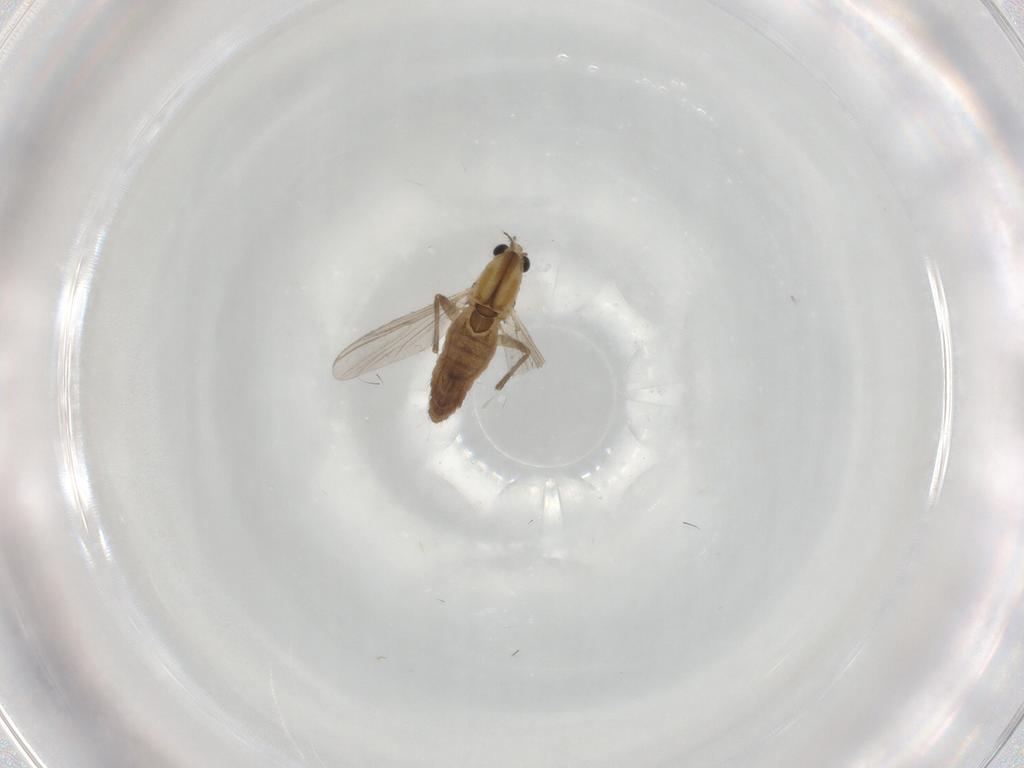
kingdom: Animalia
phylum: Arthropoda
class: Insecta
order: Diptera
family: Chironomidae
